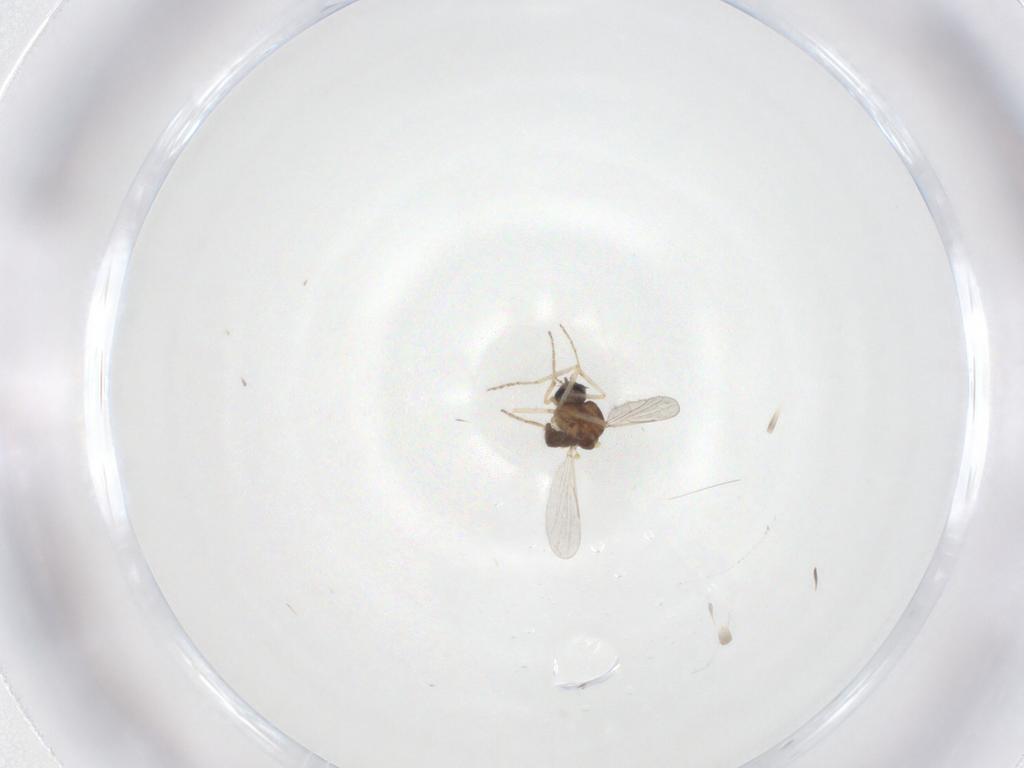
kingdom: Animalia
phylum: Arthropoda
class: Insecta
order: Diptera
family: Ceratopogonidae
